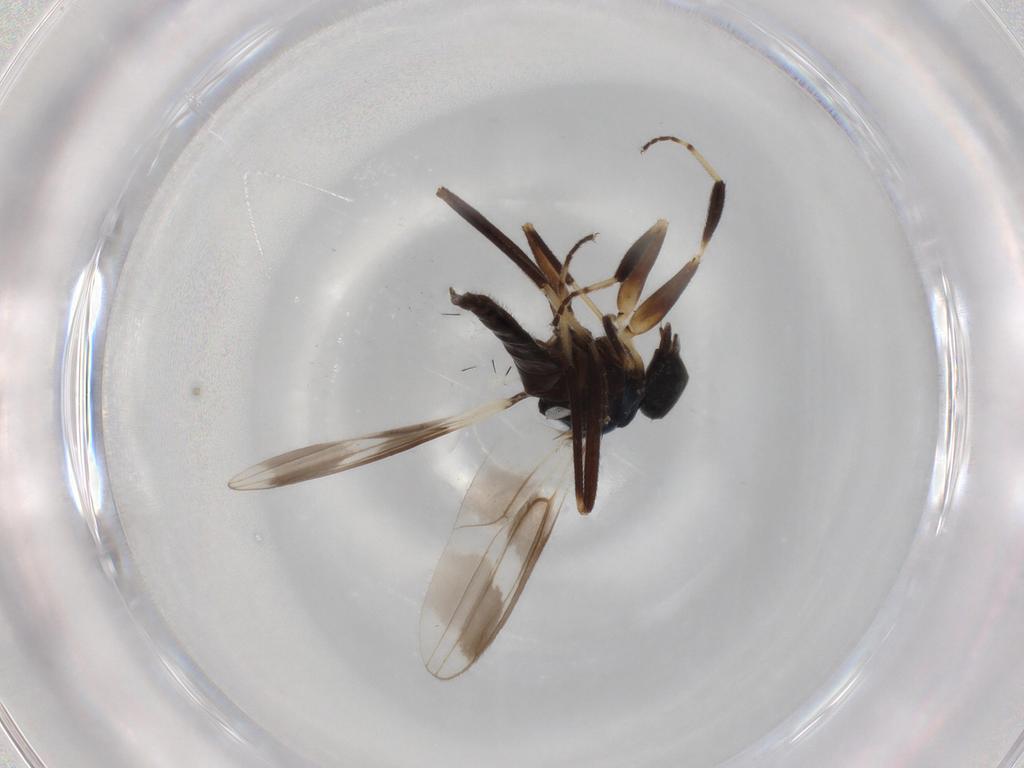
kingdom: Animalia
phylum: Arthropoda
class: Insecta
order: Diptera
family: Hybotidae
